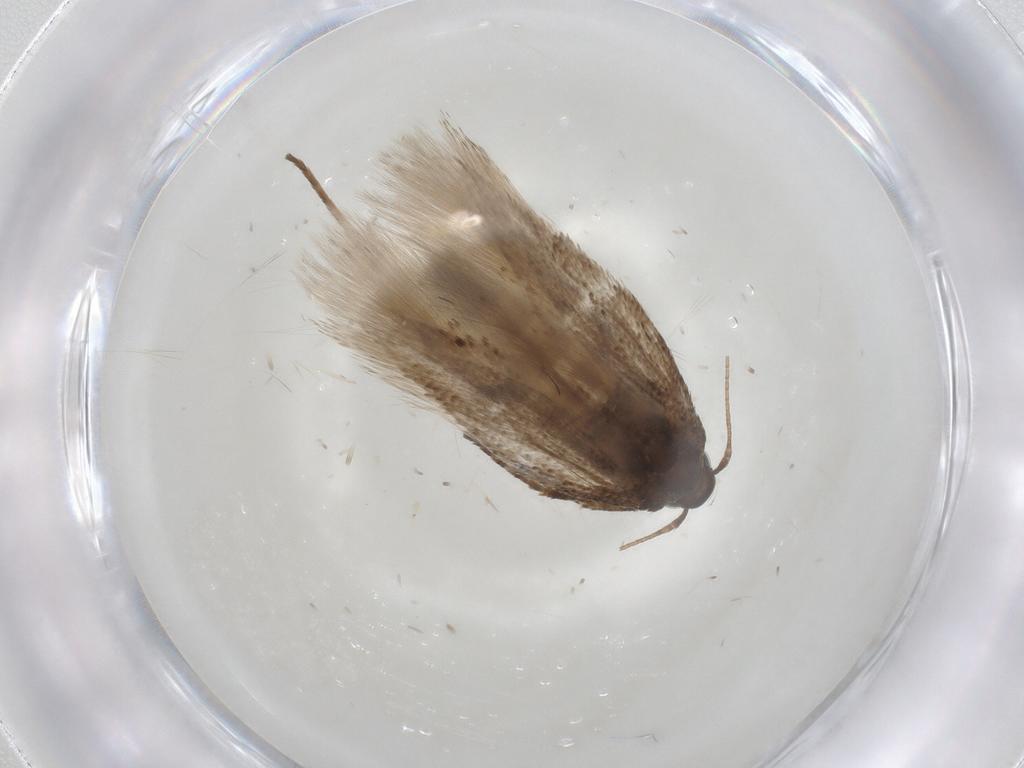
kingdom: Animalia
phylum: Arthropoda
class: Insecta
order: Lepidoptera
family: Gelechiidae
